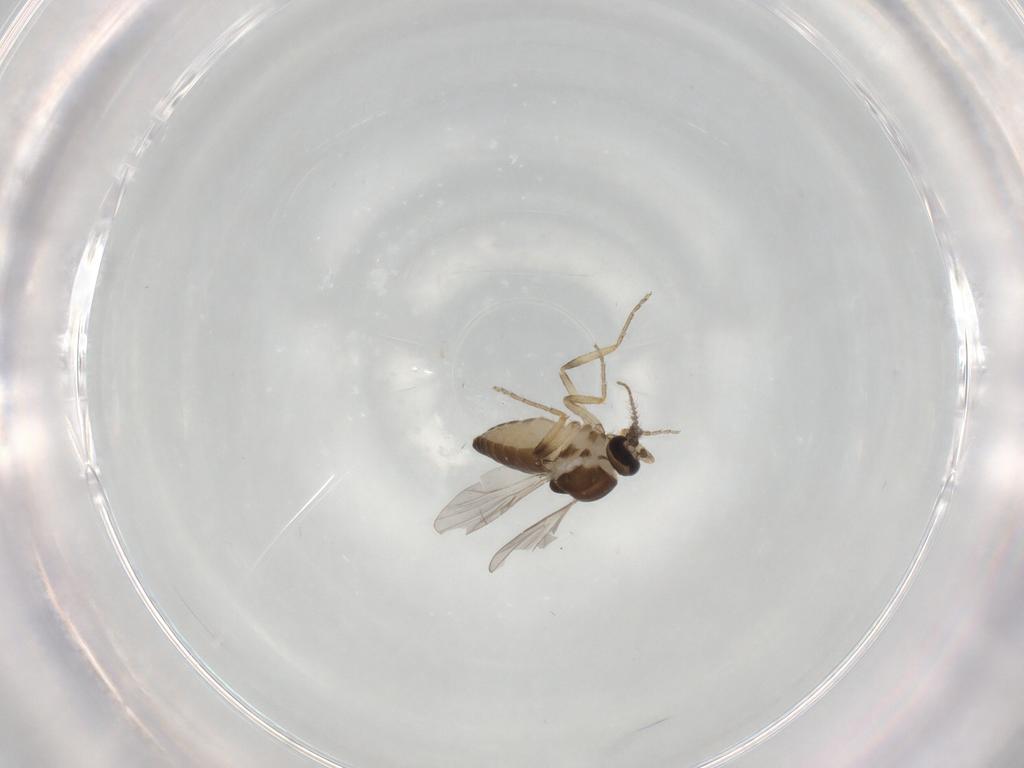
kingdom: Animalia
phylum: Arthropoda
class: Insecta
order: Diptera
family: Ceratopogonidae
